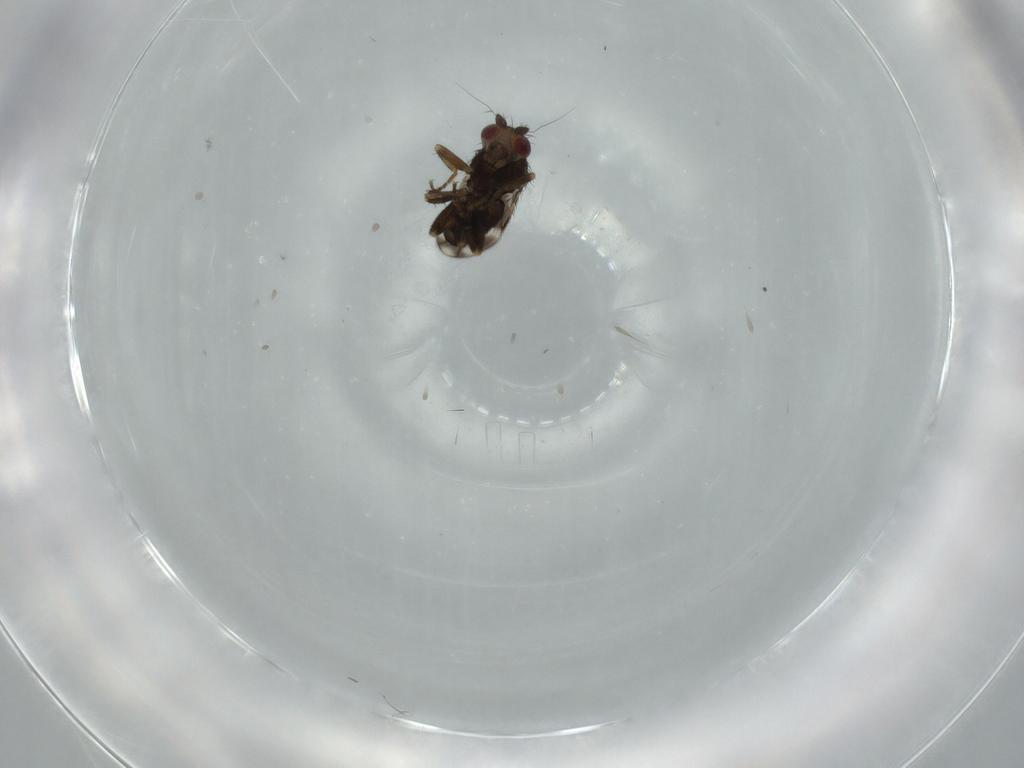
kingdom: Animalia
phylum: Arthropoda
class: Insecta
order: Diptera
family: Sphaeroceridae
